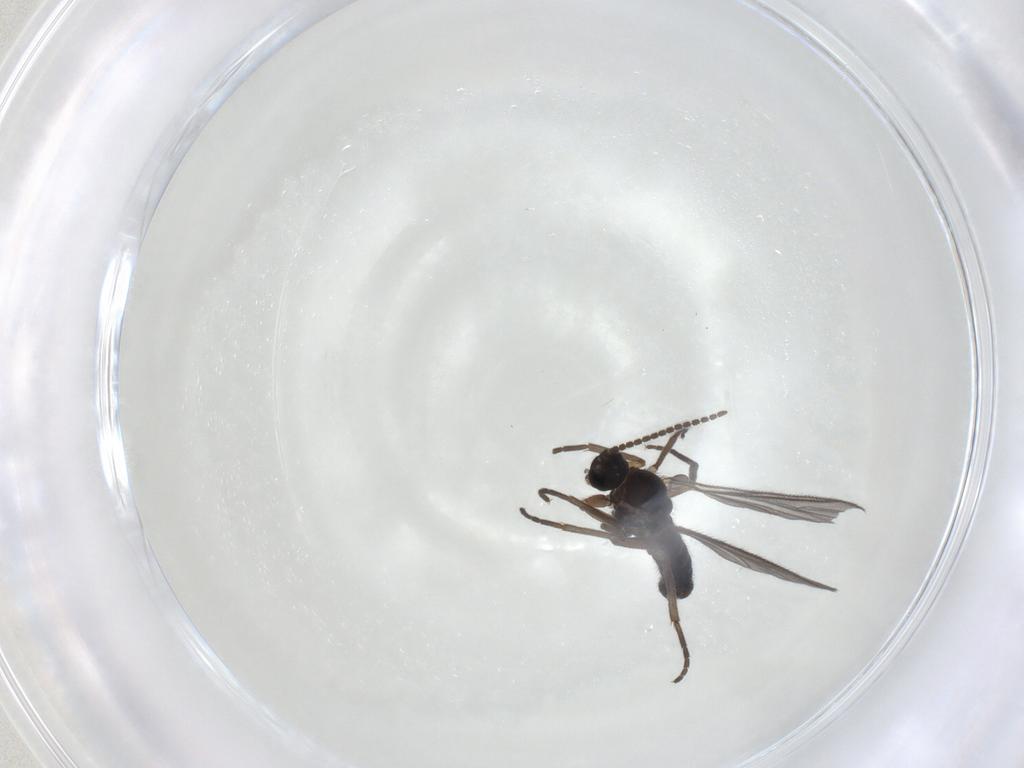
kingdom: Animalia
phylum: Arthropoda
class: Insecta
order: Diptera
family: Sciaridae
